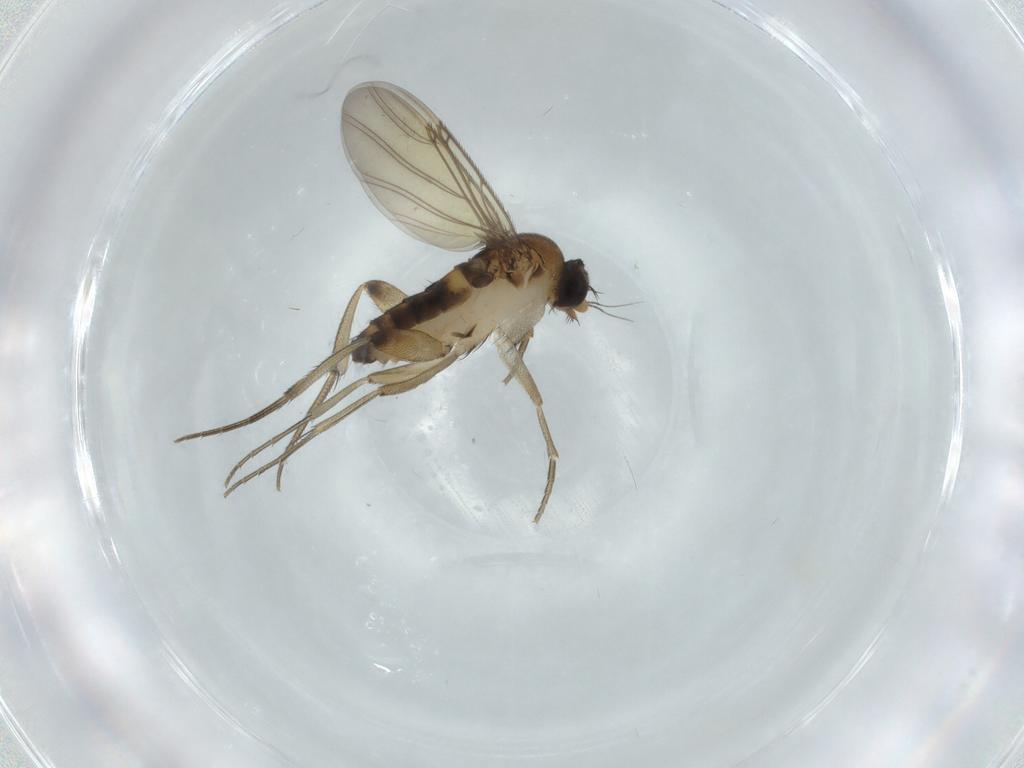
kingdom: Animalia
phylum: Arthropoda
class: Insecta
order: Diptera
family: Phoridae
